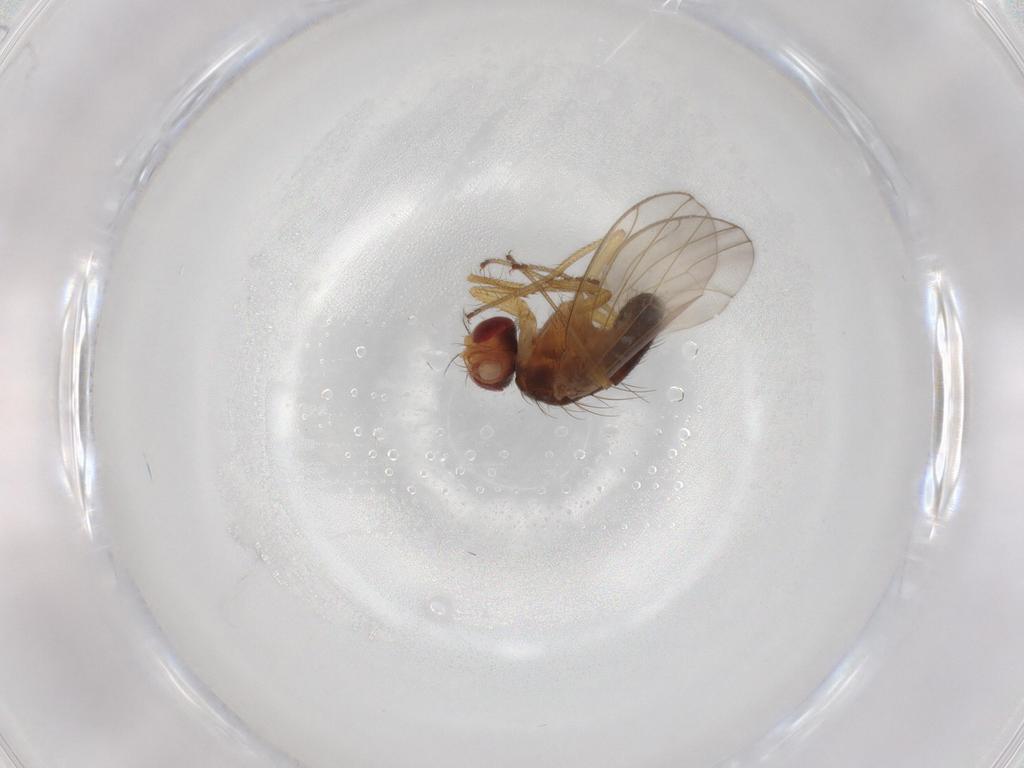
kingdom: Animalia
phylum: Arthropoda
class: Insecta
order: Diptera
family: Drosophilidae
